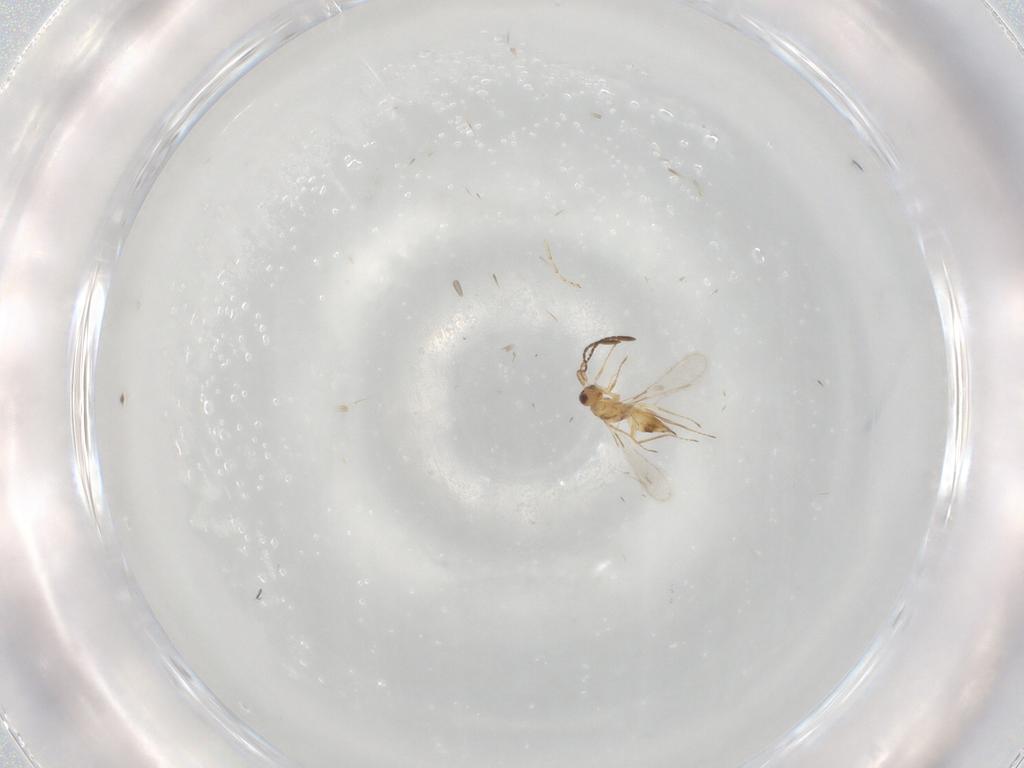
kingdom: Animalia
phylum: Arthropoda
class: Insecta
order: Hymenoptera
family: Mymaridae
